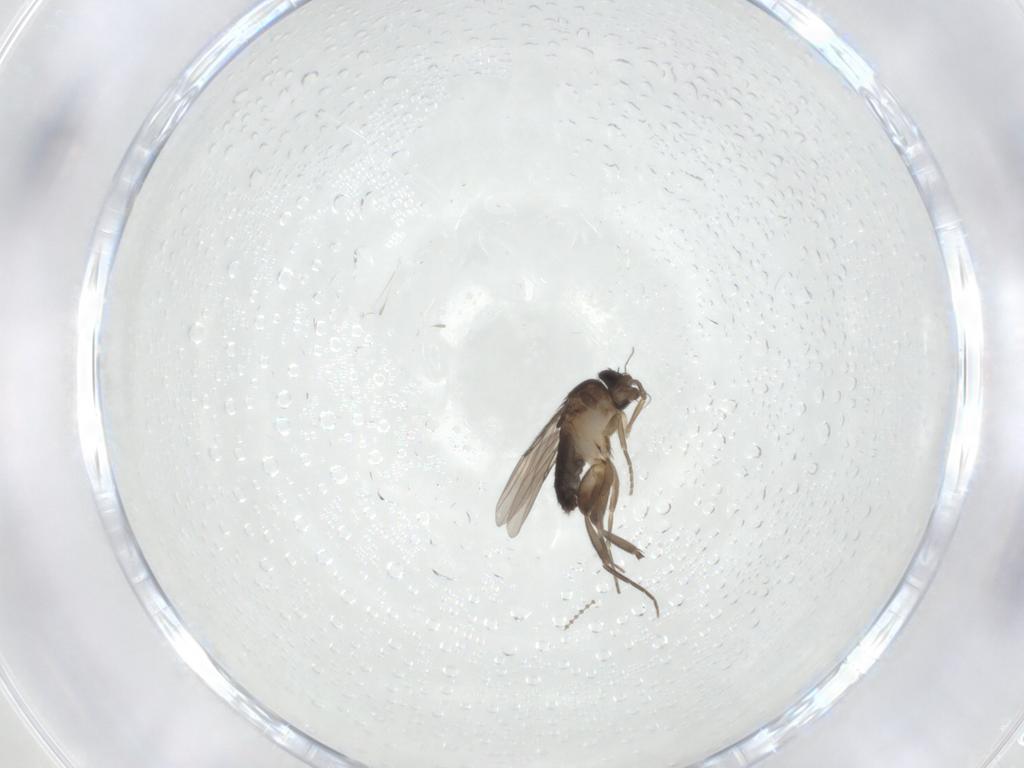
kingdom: Animalia
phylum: Arthropoda
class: Insecta
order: Diptera
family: Phoridae
